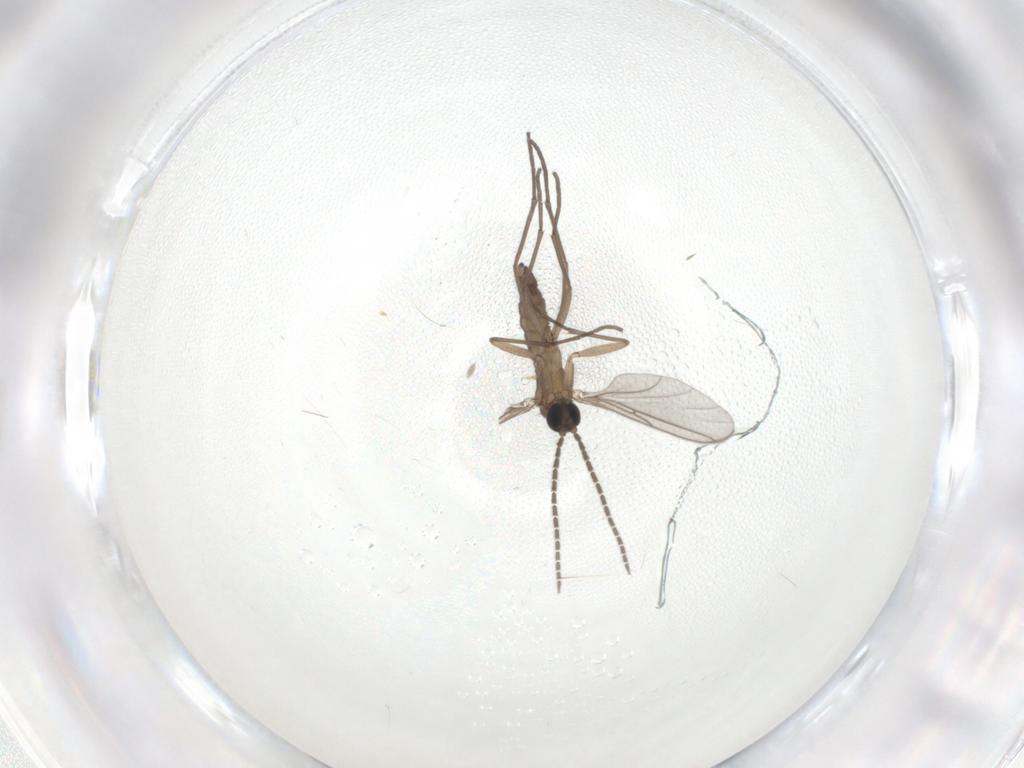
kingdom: Animalia
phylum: Arthropoda
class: Insecta
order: Diptera
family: Sciaridae
